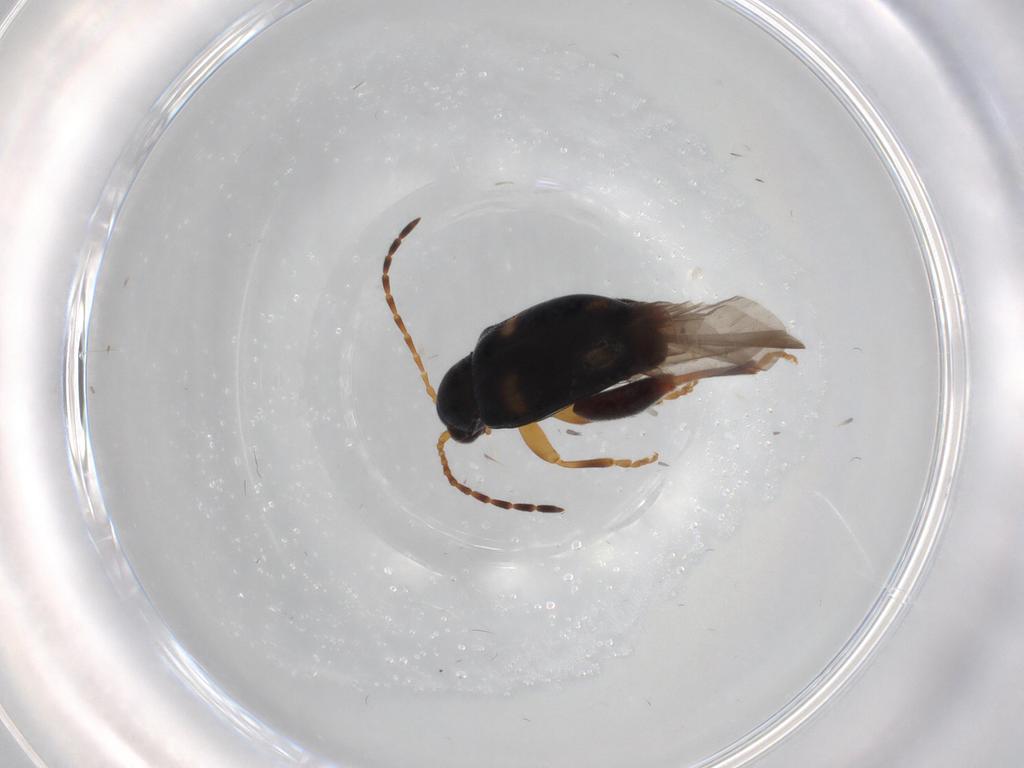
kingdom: Animalia
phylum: Arthropoda
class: Insecta
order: Coleoptera
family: Chrysomelidae
